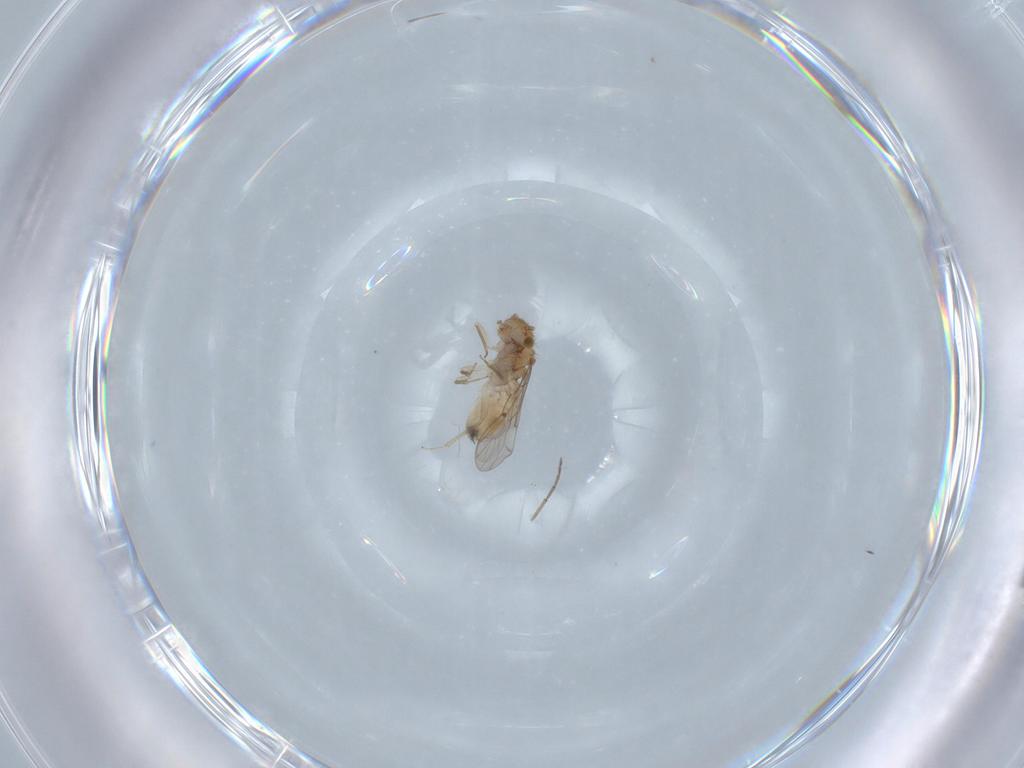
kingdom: Animalia
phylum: Arthropoda
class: Insecta
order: Psocodea
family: Ectopsocidae
